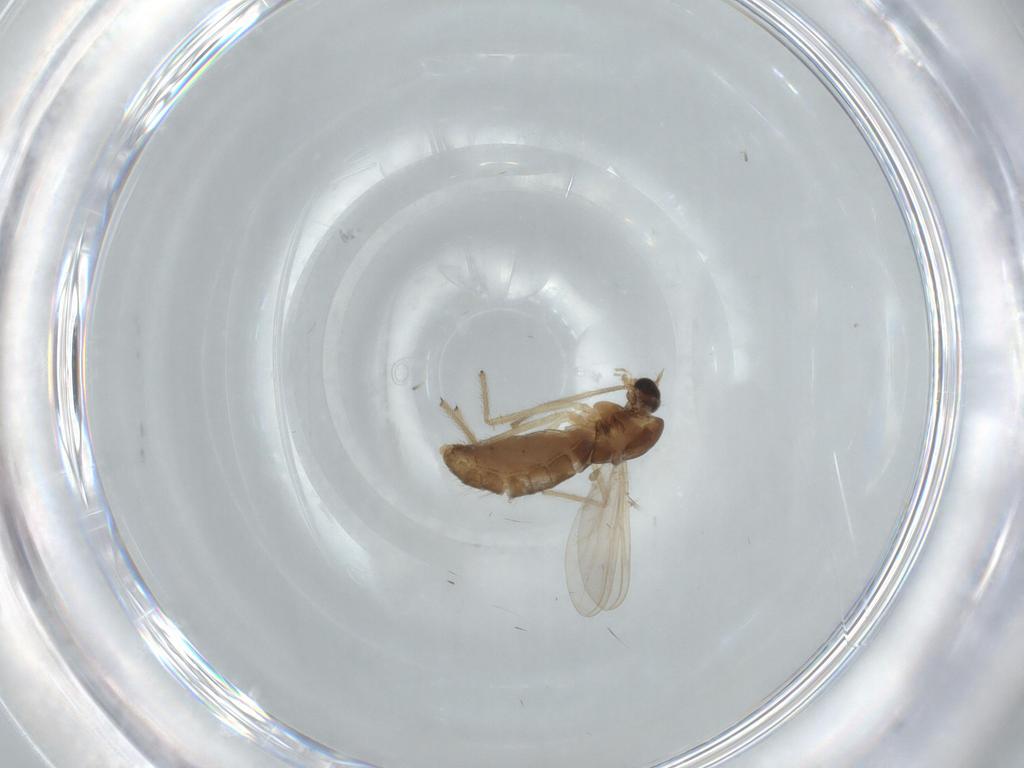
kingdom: Animalia
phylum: Arthropoda
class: Insecta
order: Diptera
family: Chironomidae
